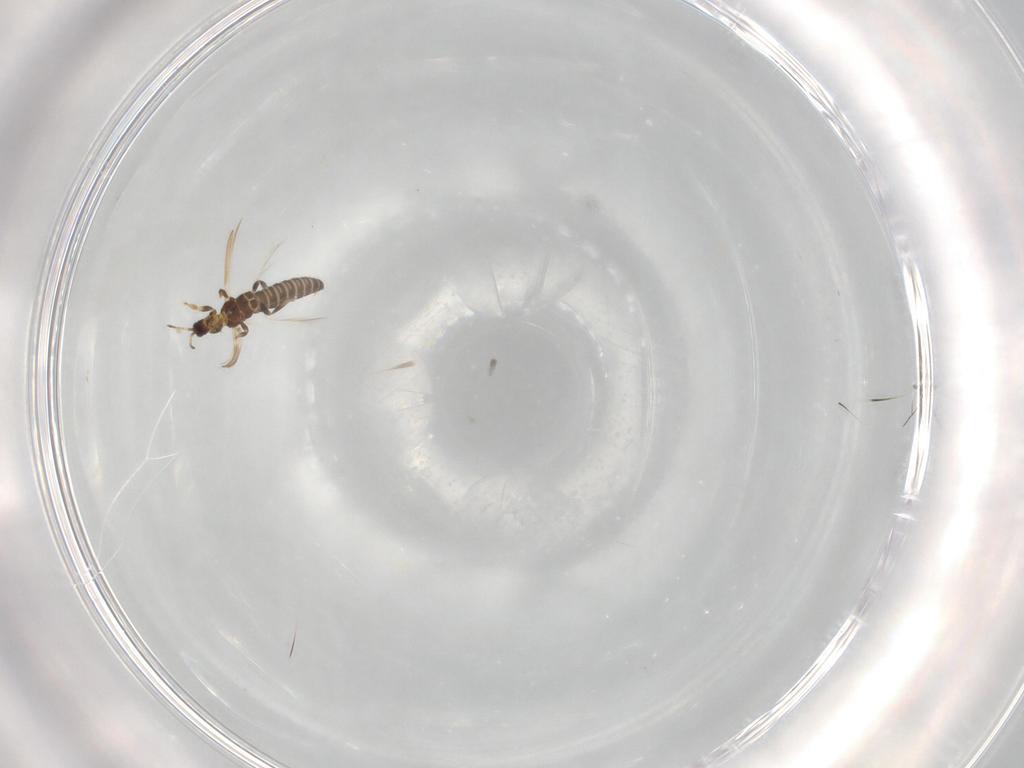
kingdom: Animalia
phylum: Arthropoda
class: Insecta
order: Thysanoptera
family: Thripidae
